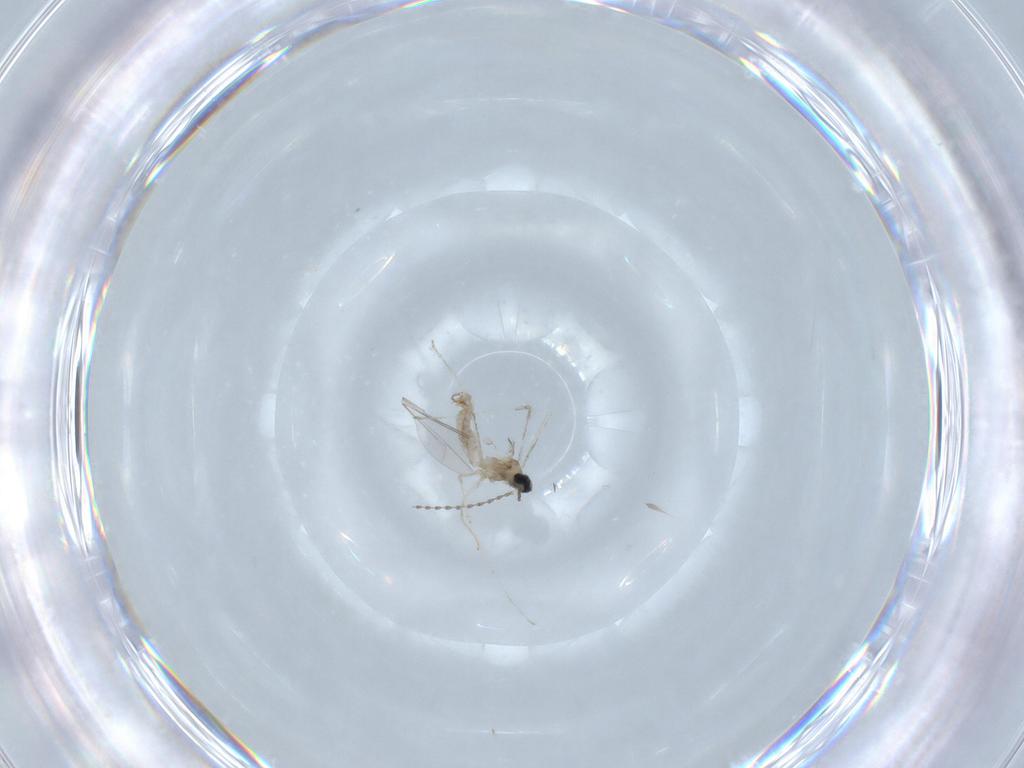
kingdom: Animalia
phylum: Arthropoda
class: Insecta
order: Diptera
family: Cecidomyiidae
